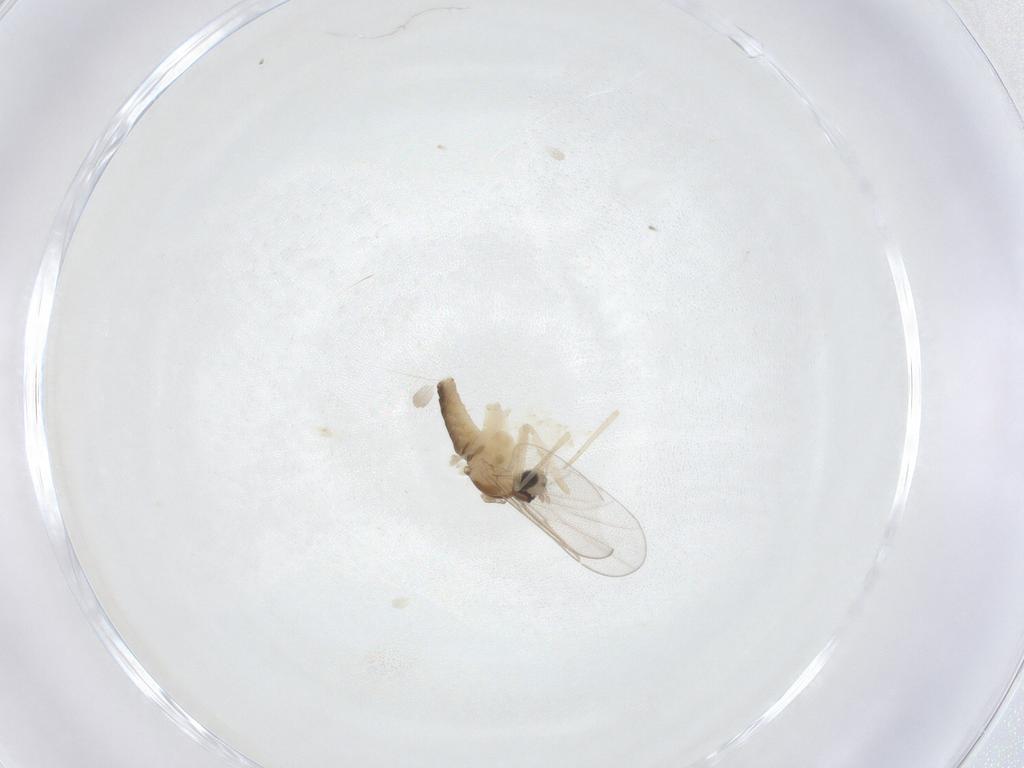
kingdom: Animalia
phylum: Arthropoda
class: Insecta
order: Diptera
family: Cecidomyiidae
